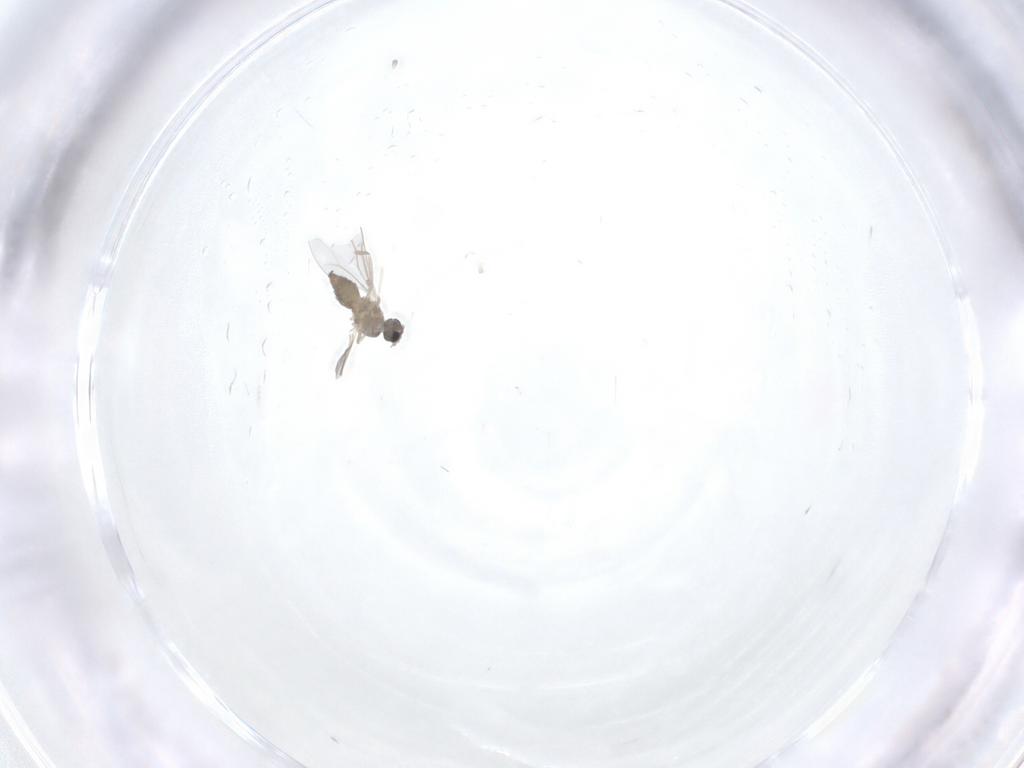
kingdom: Animalia
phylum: Arthropoda
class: Insecta
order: Diptera
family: Cecidomyiidae
